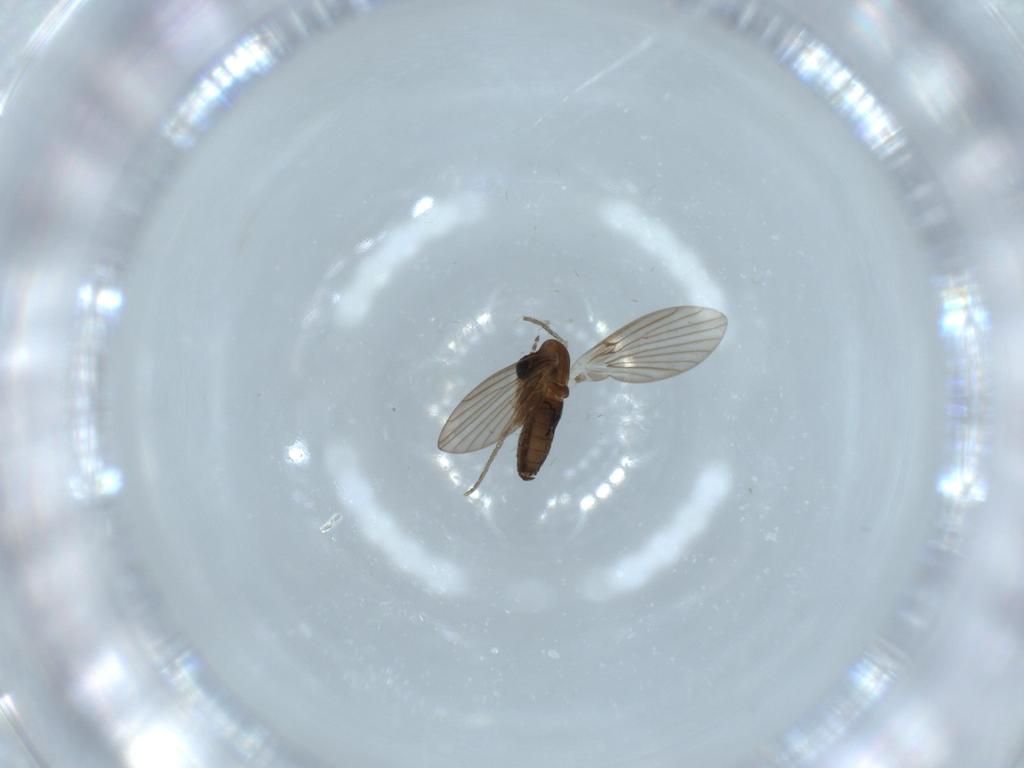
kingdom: Animalia
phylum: Arthropoda
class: Insecta
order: Diptera
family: Psychodidae
